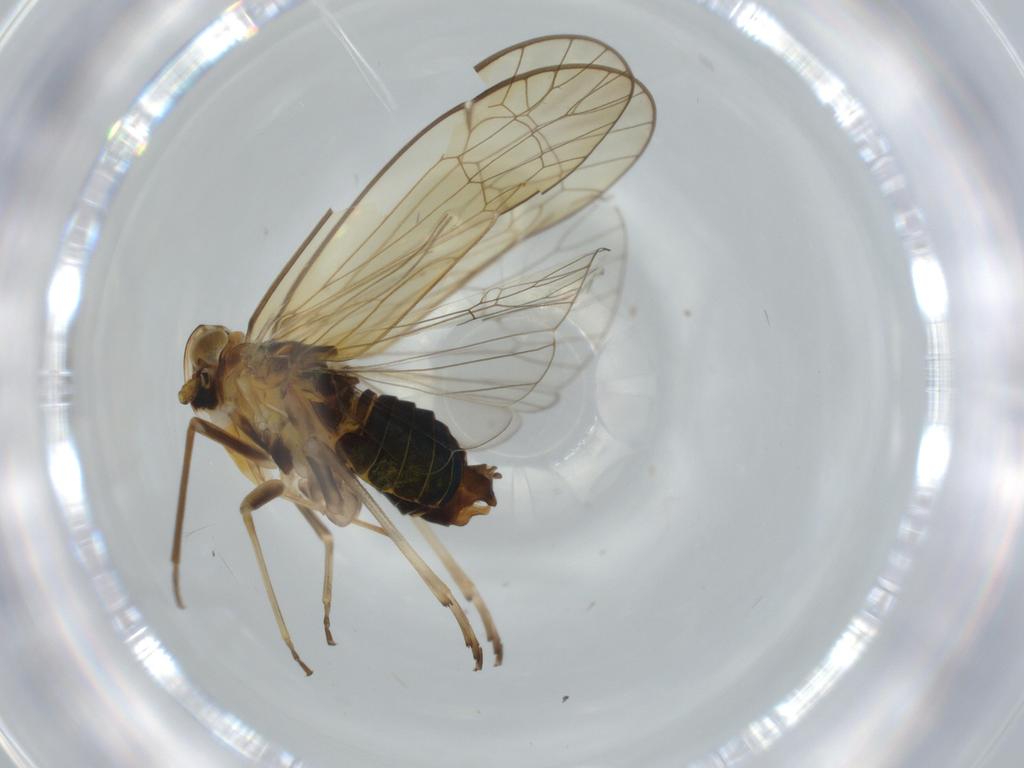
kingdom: Animalia
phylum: Arthropoda
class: Insecta
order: Hemiptera
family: Kinnaridae
